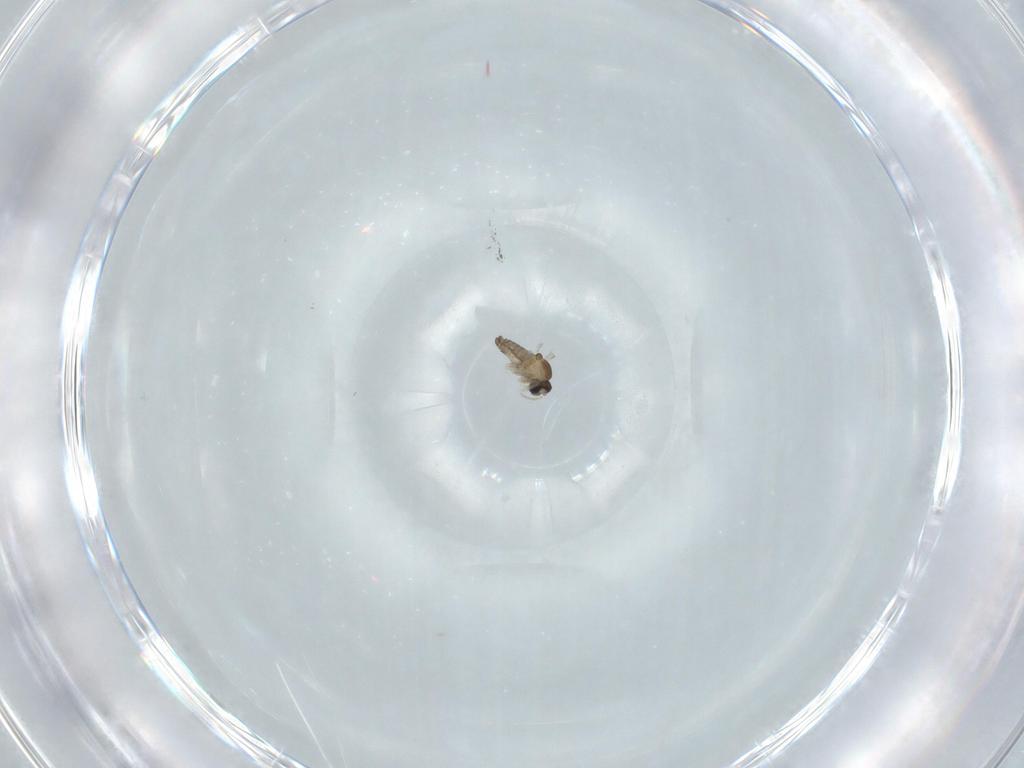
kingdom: Animalia
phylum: Arthropoda
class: Insecta
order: Diptera
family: Cecidomyiidae
